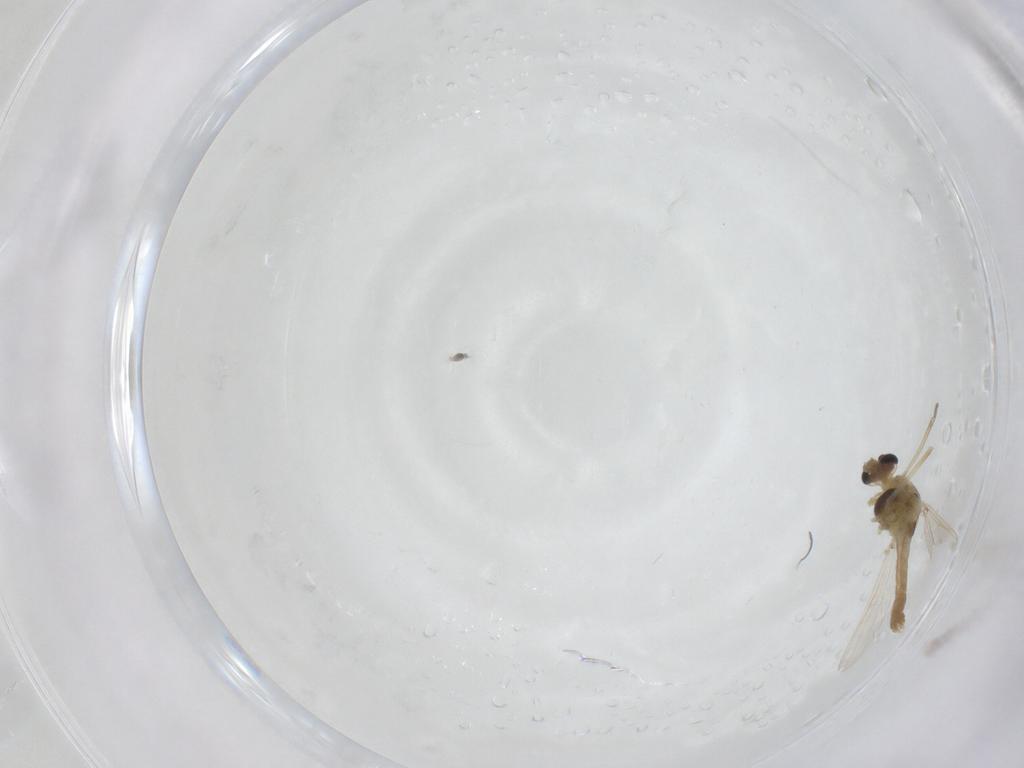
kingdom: Animalia
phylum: Arthropoda
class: Insecta
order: Diptera
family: Chironomidae
